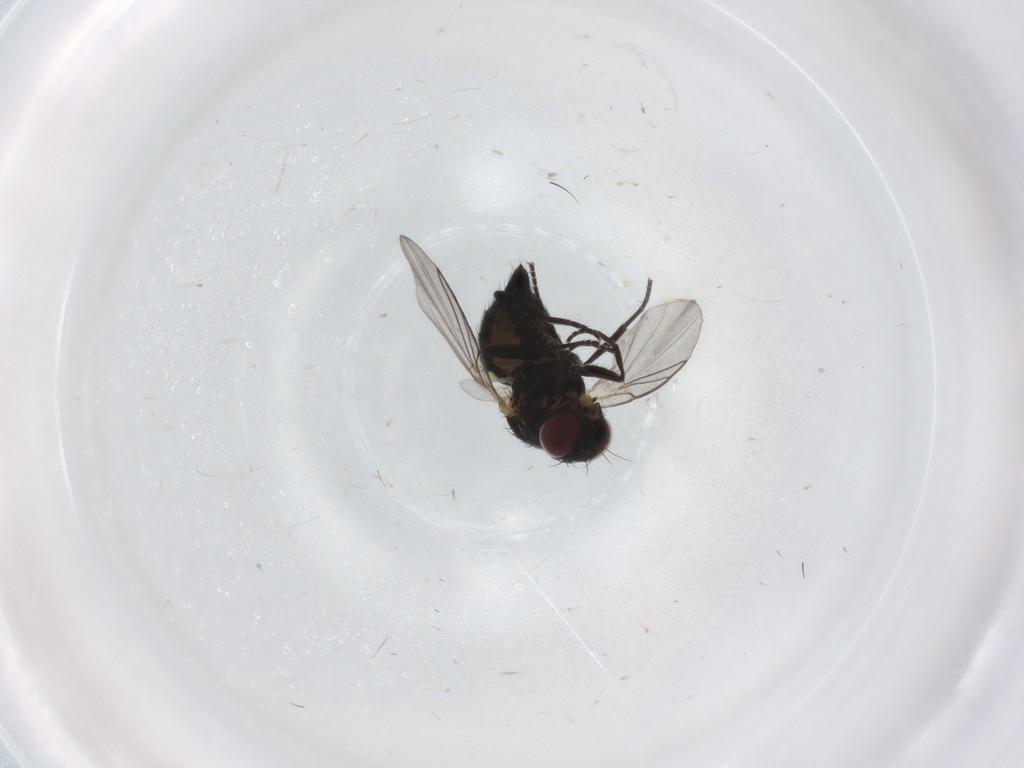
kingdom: Animalia
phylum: Arthropoda
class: Insecta
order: Diptera
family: Agromyzidae
